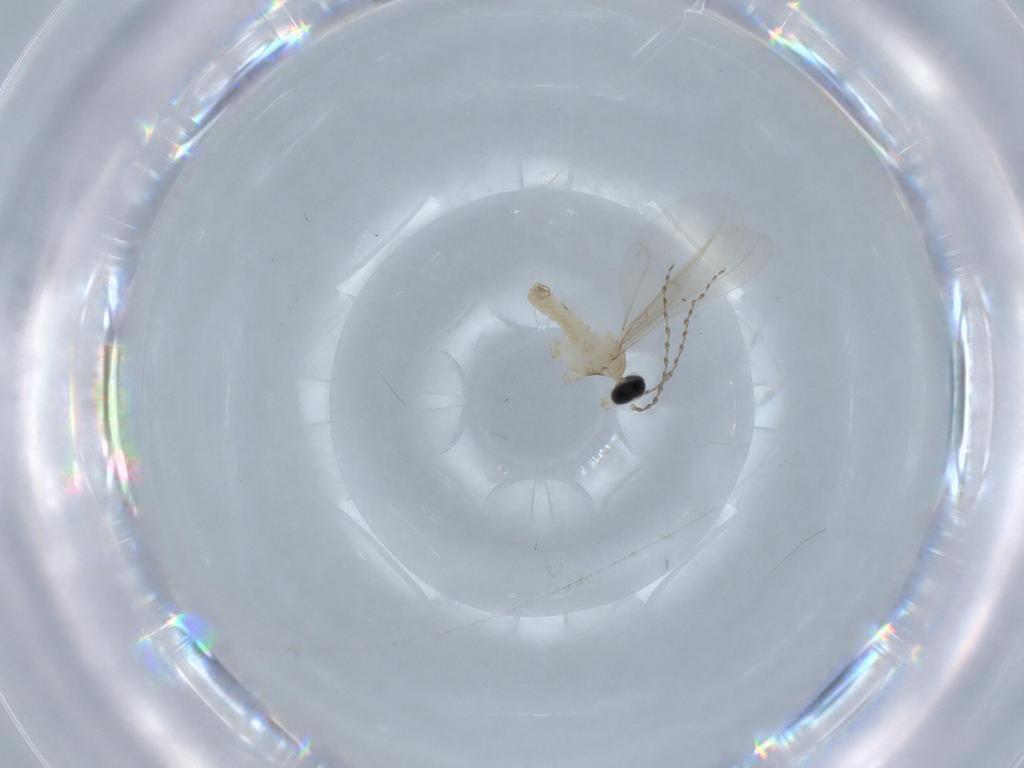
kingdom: Animalia
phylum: Arthropoda
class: Insecta
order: Diptera
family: Cecidomyiidae
